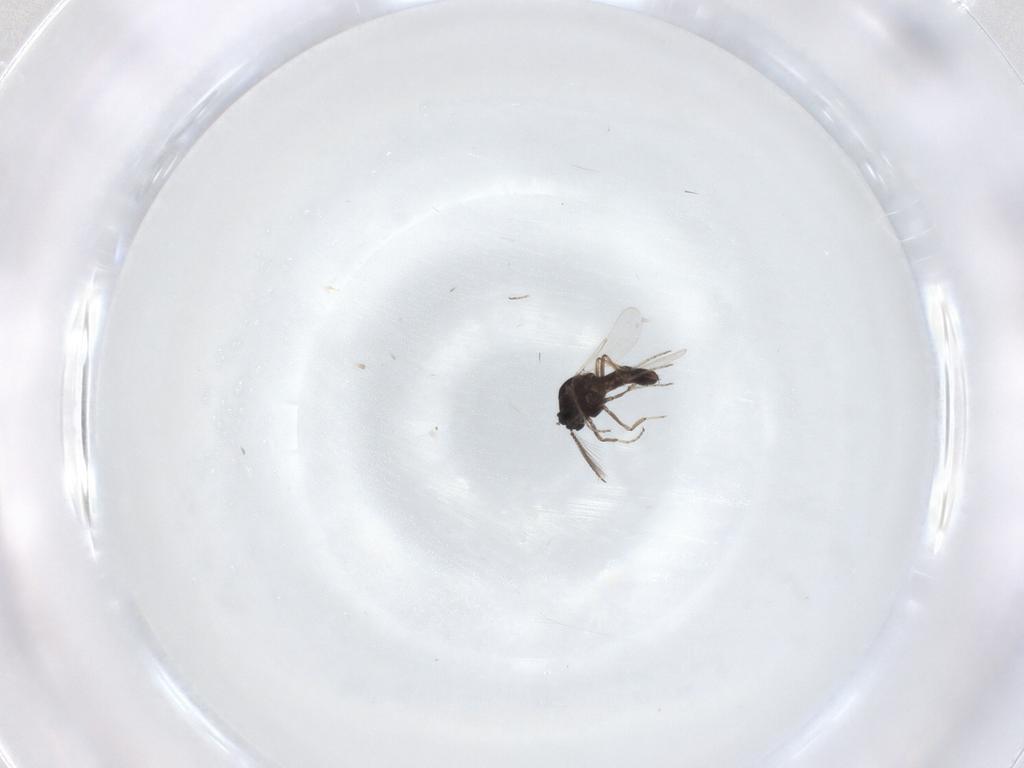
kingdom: Animalia
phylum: Arthropoda
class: Insecta
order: Diptera
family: Ceratopogonidae
